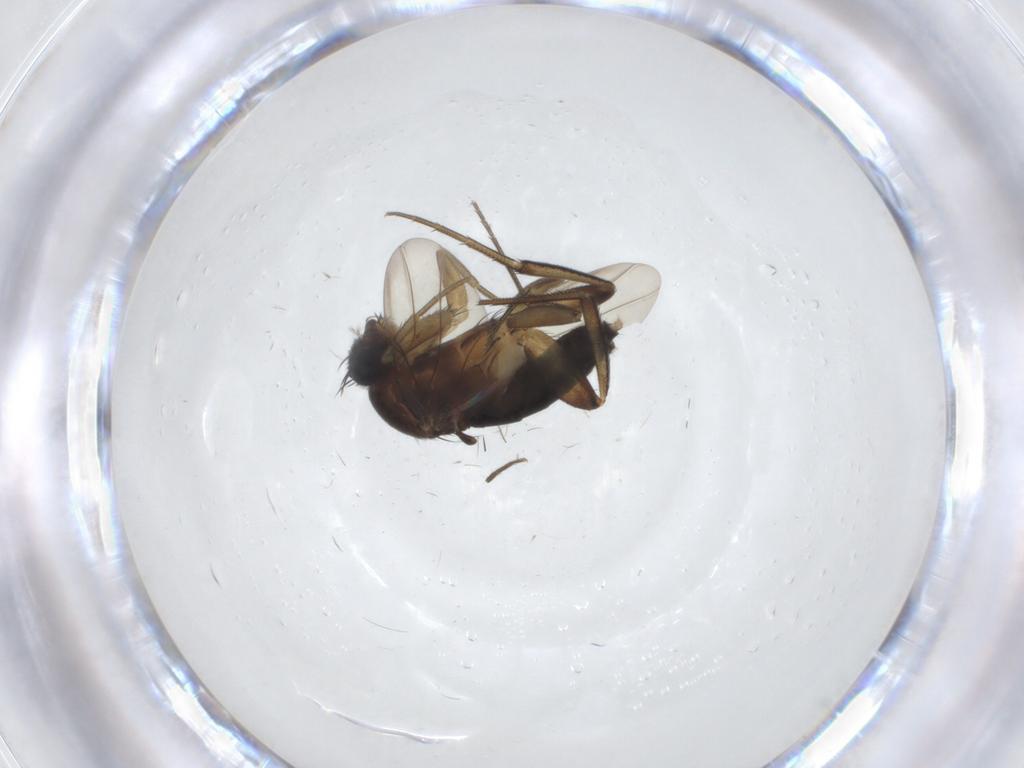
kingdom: Animalia
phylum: Arthropoda
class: Insecta
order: Diptera
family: Phoridae
